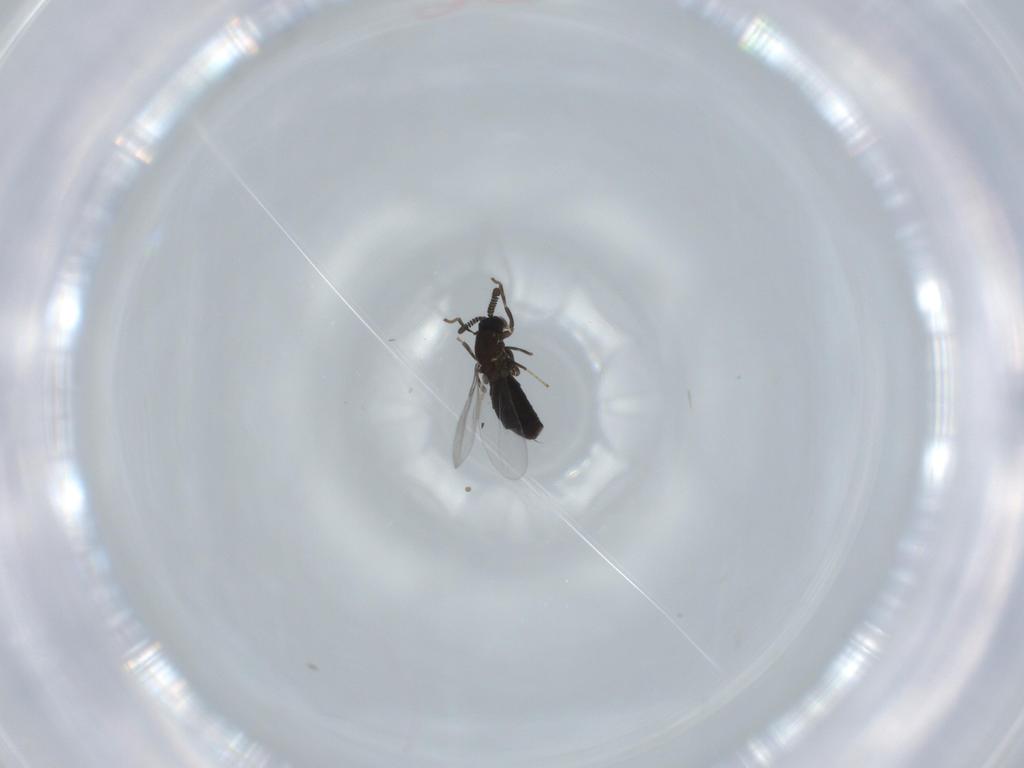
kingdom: Animalia
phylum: Arthropoda
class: Insecta
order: Diptera
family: Scatopsidae
